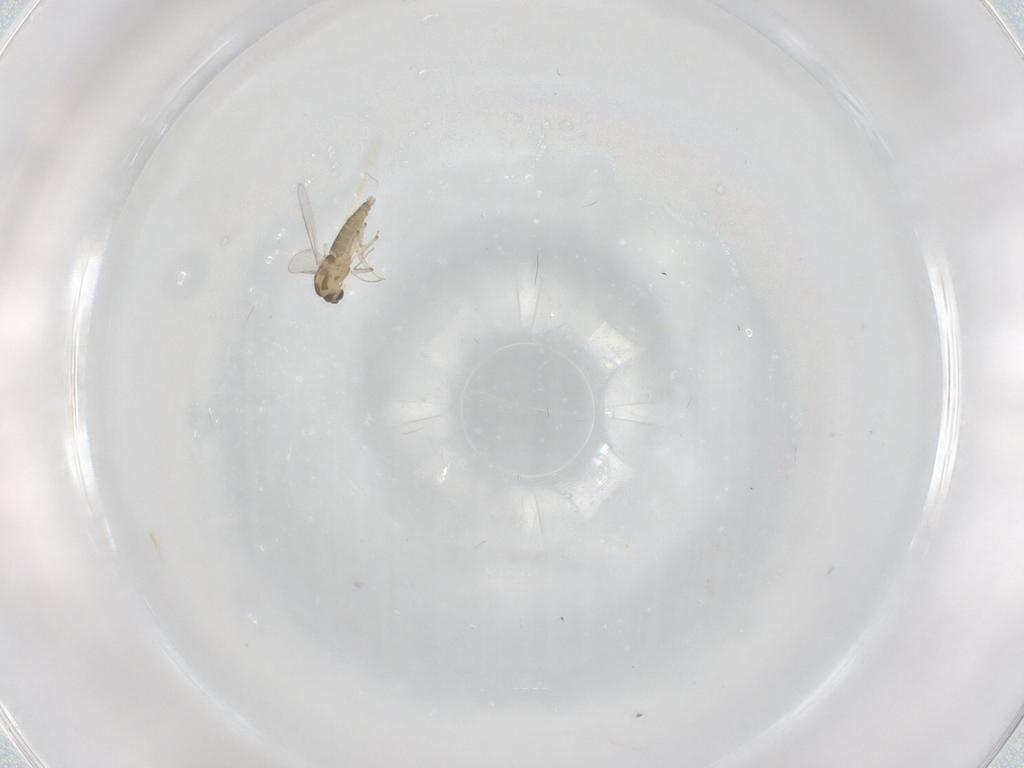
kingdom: Animalia
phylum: Arthropoda
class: Insecta
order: Diptera
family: Chironomidae
